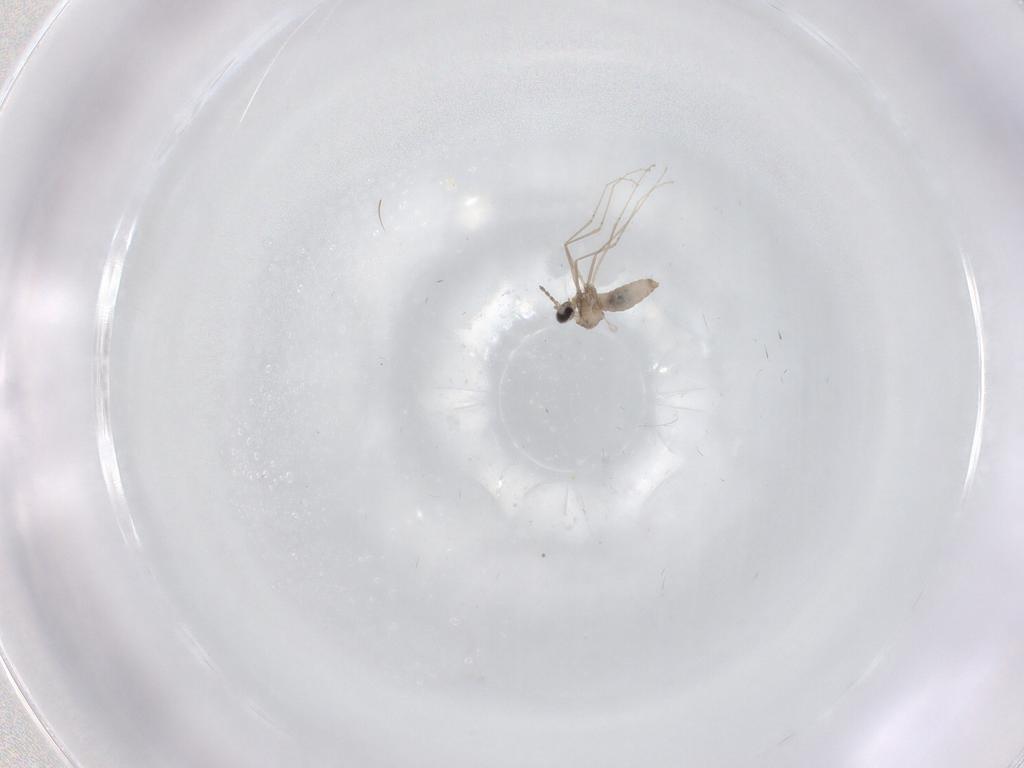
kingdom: Animalia
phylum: Arthropoda
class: Insecta
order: Diptera
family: Cecidomyiidae
